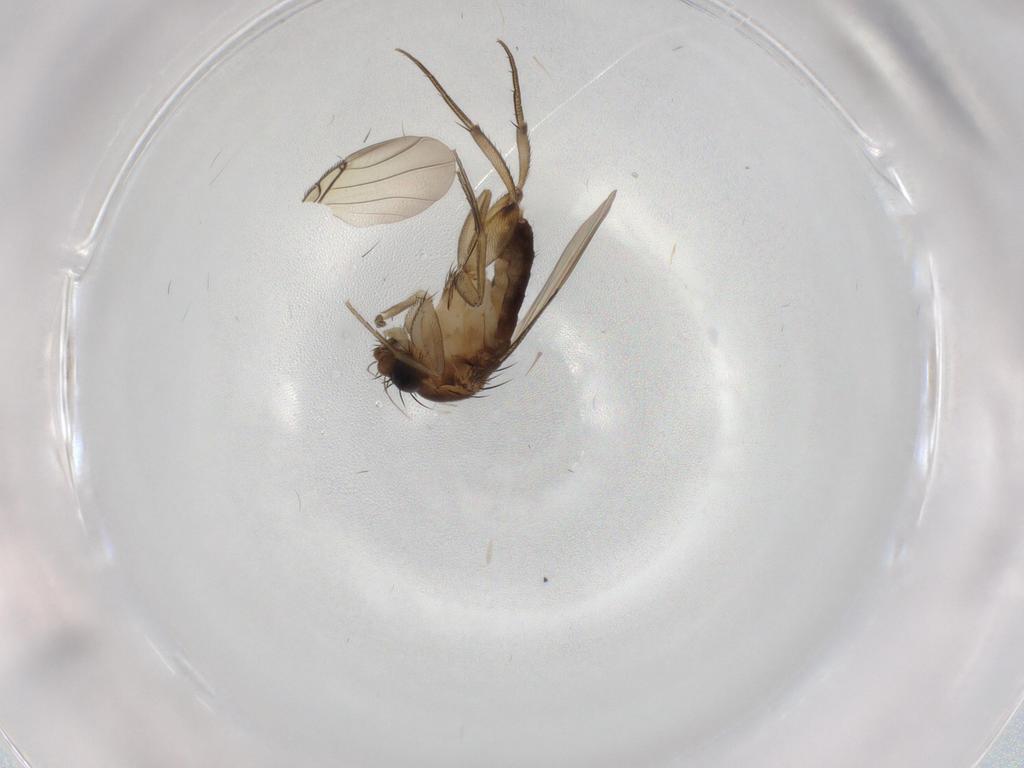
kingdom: Animalia
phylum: Arthropoda
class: Insecta
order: Diptera
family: Phoridae
